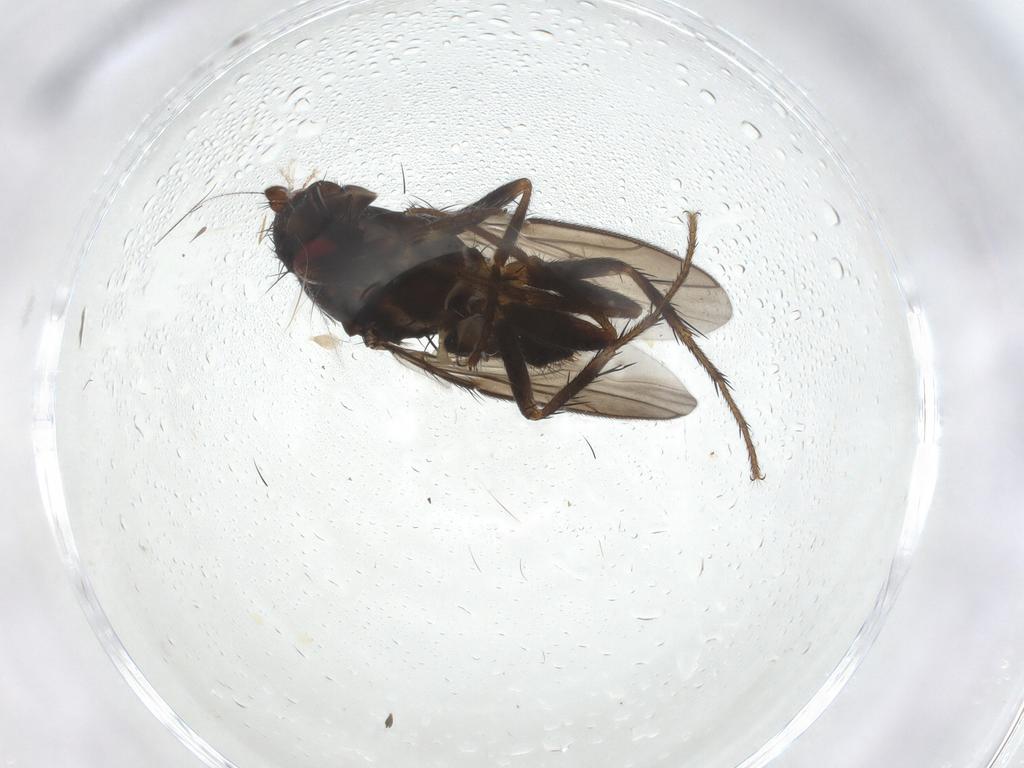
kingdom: Animalia
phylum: Arthropoda
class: Insecta
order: Diptera
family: Sphaeroceridae
